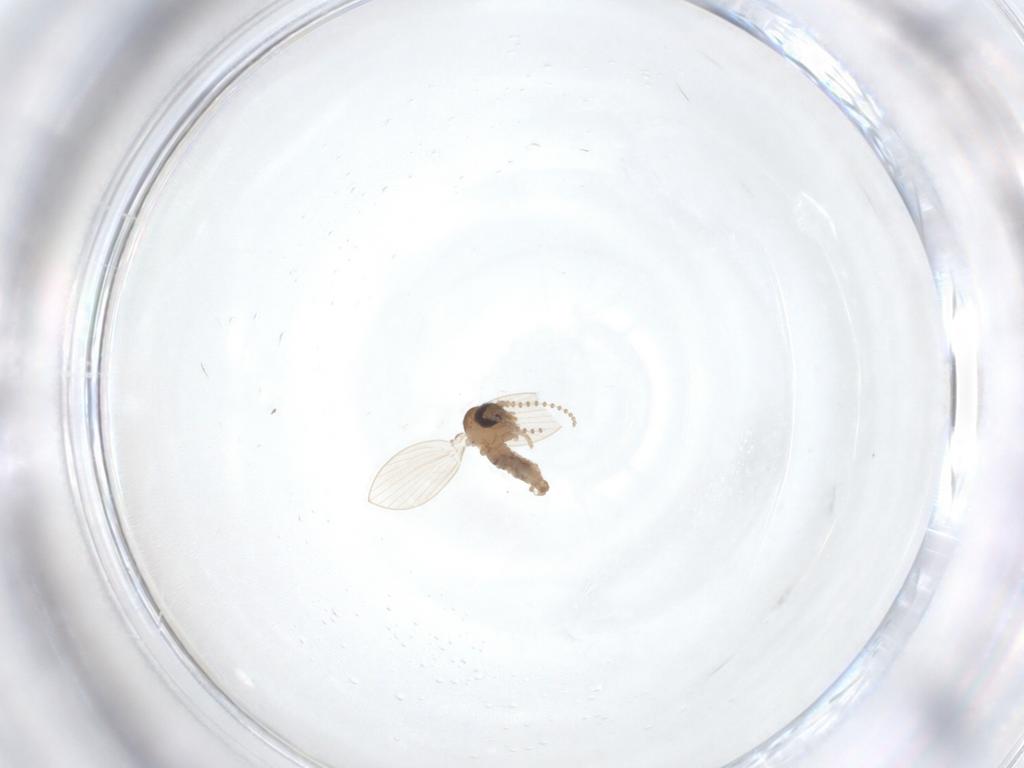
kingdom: Animalia
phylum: Arthropoda
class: Insecta
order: Diptera
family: Psychodidae
